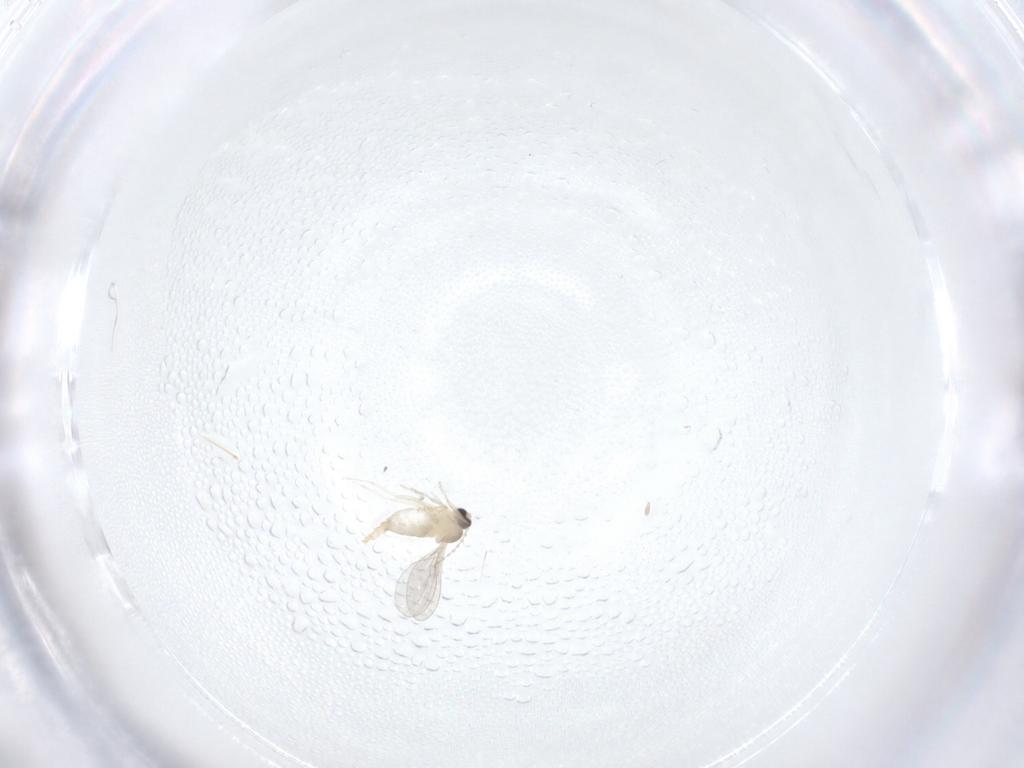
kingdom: Animalia
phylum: Arthropoda
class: Insecta
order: Diptera
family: Cecidomyiidae
